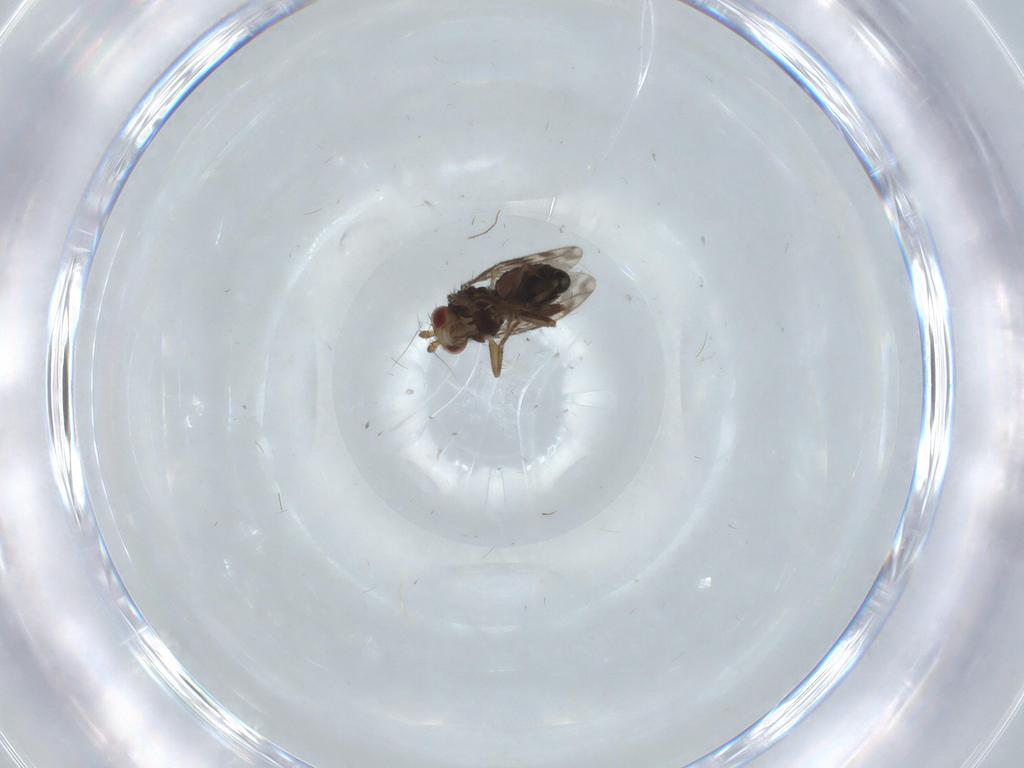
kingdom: Animalia
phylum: Arthropoda
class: Insecta
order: Diptera
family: Sphaeroceridae
